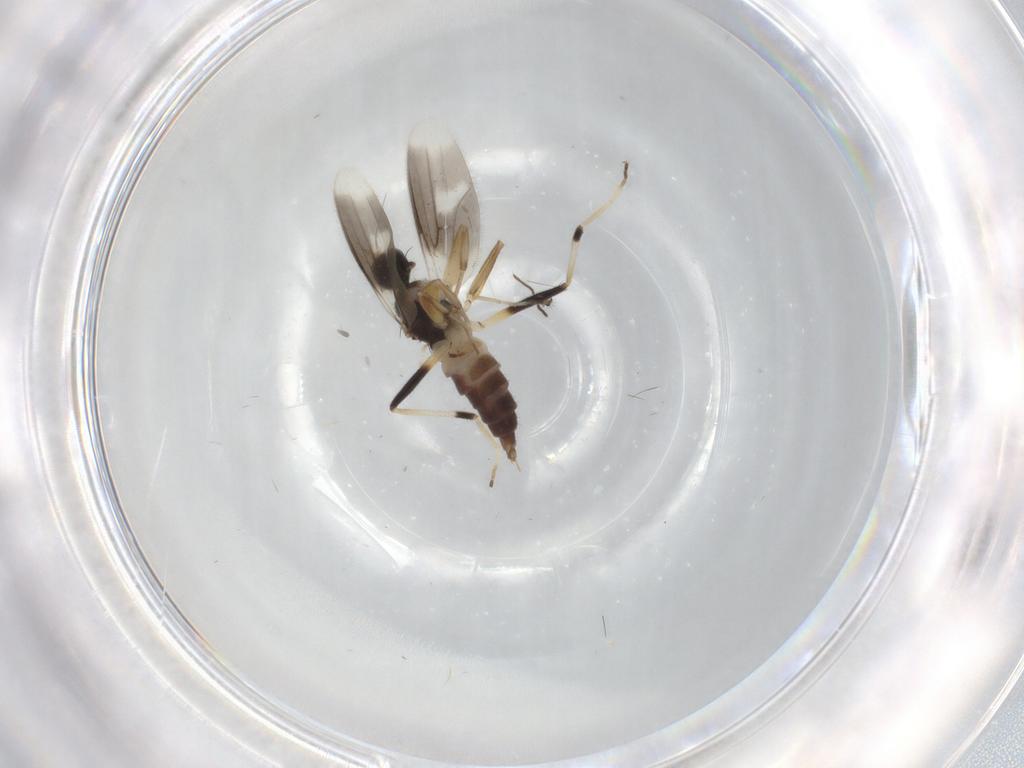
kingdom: Animalia
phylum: Arthropoda
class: Insecta
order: Diptera
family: Hybotidae
